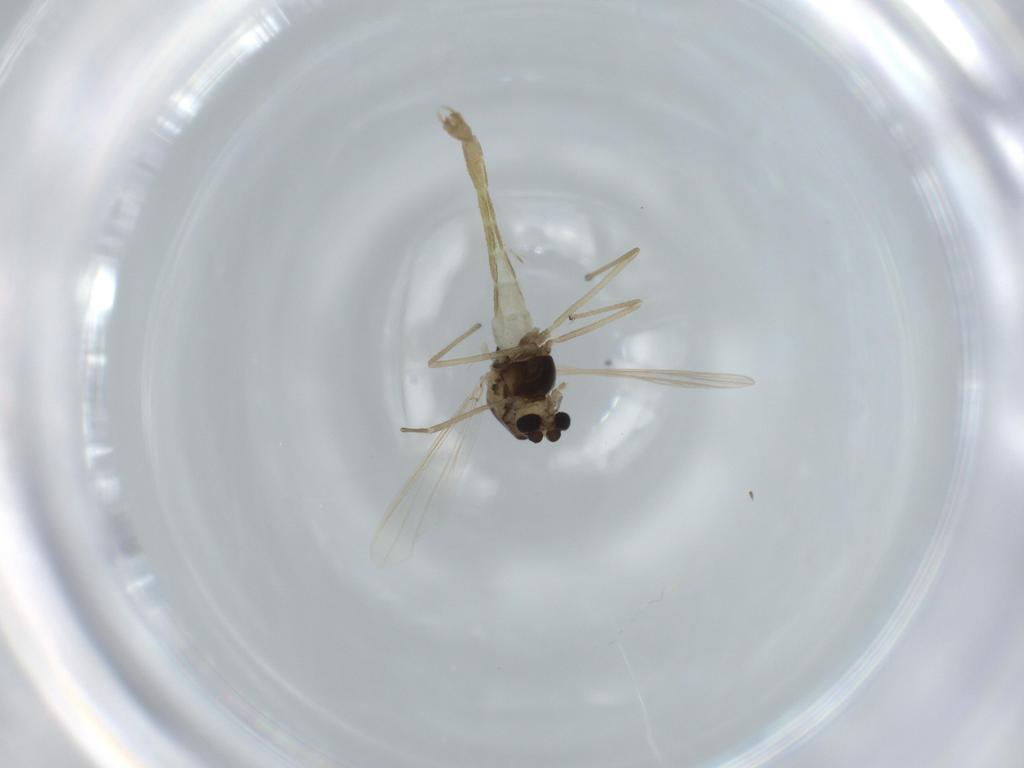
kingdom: Animalia
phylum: Arthropoda
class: Insecta
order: Diptera
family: Chironomidae
